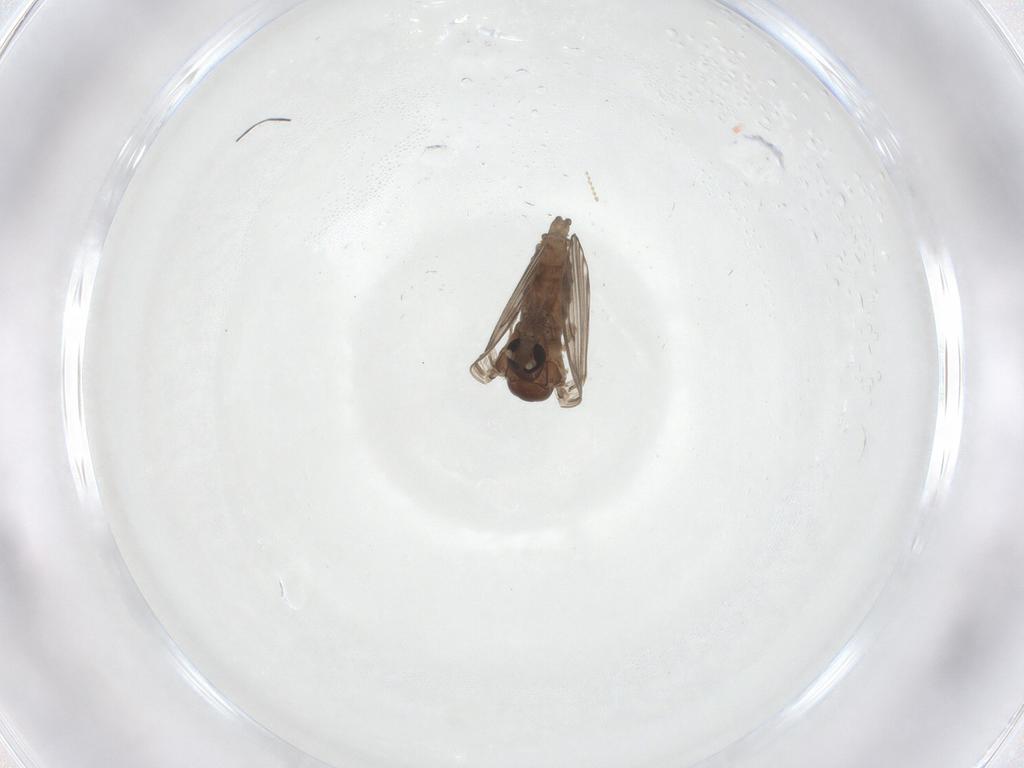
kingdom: Animalia
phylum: Arthropoda
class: Insecta
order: Diptera
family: Psychodidae
